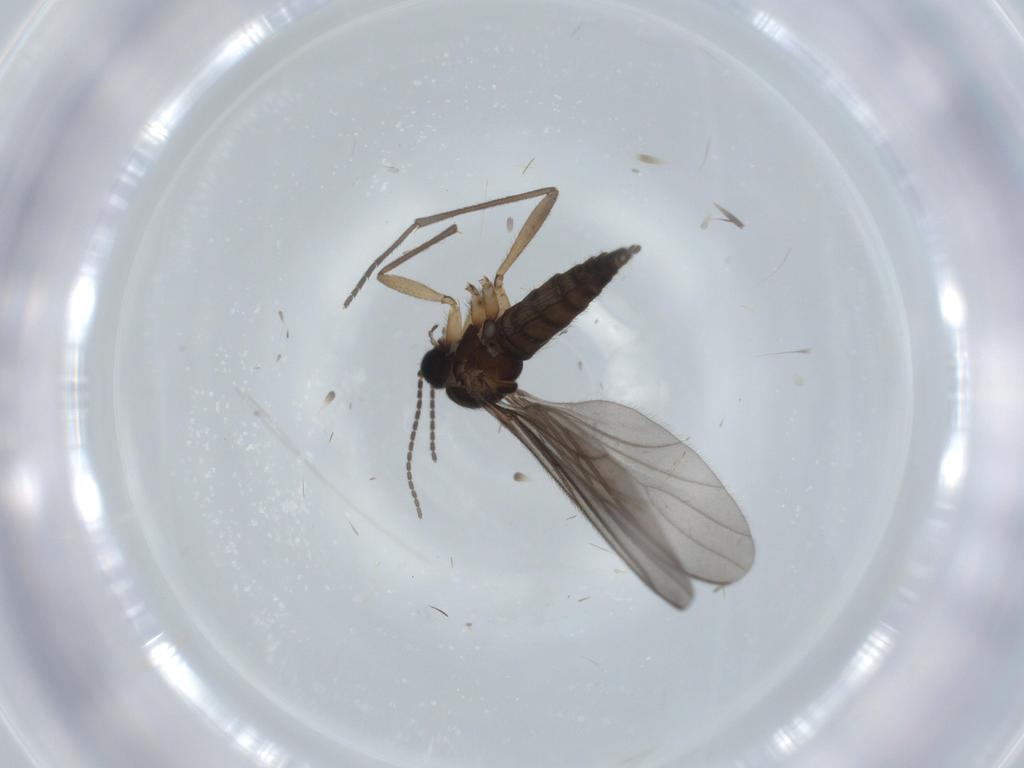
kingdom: Animalia
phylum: Arthropoda
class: Insecta
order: Diptera
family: Sciaridae
